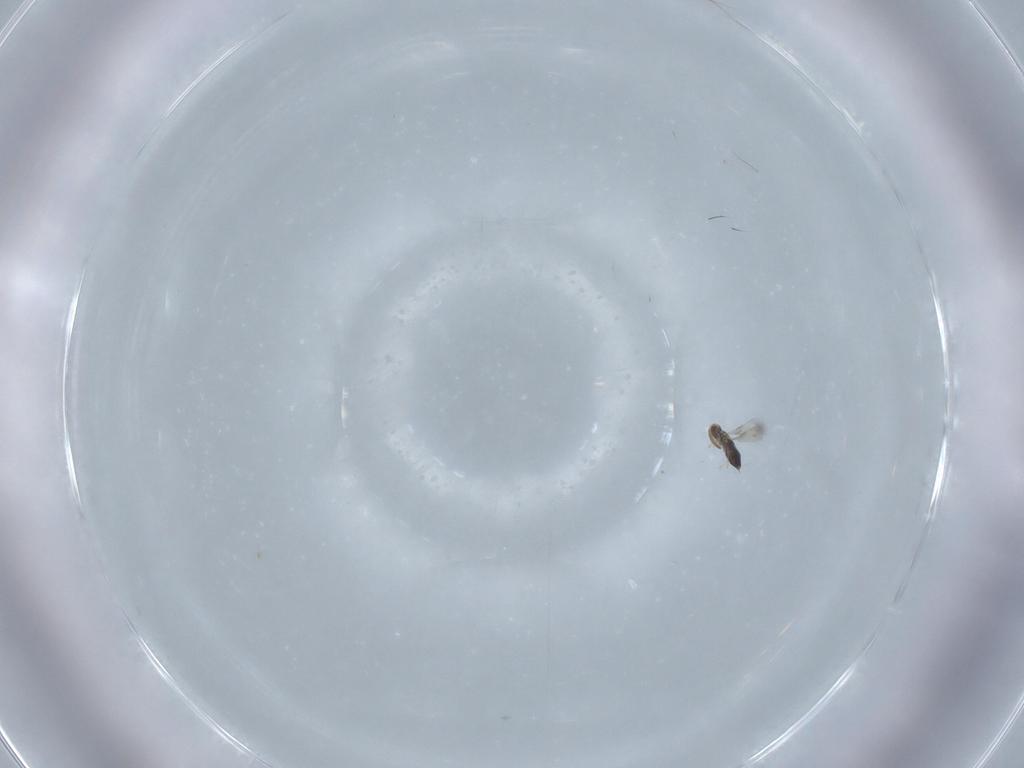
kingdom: Animalia
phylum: Arthropoda
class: Insecta
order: Hymenoptera
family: Signiphoridae
